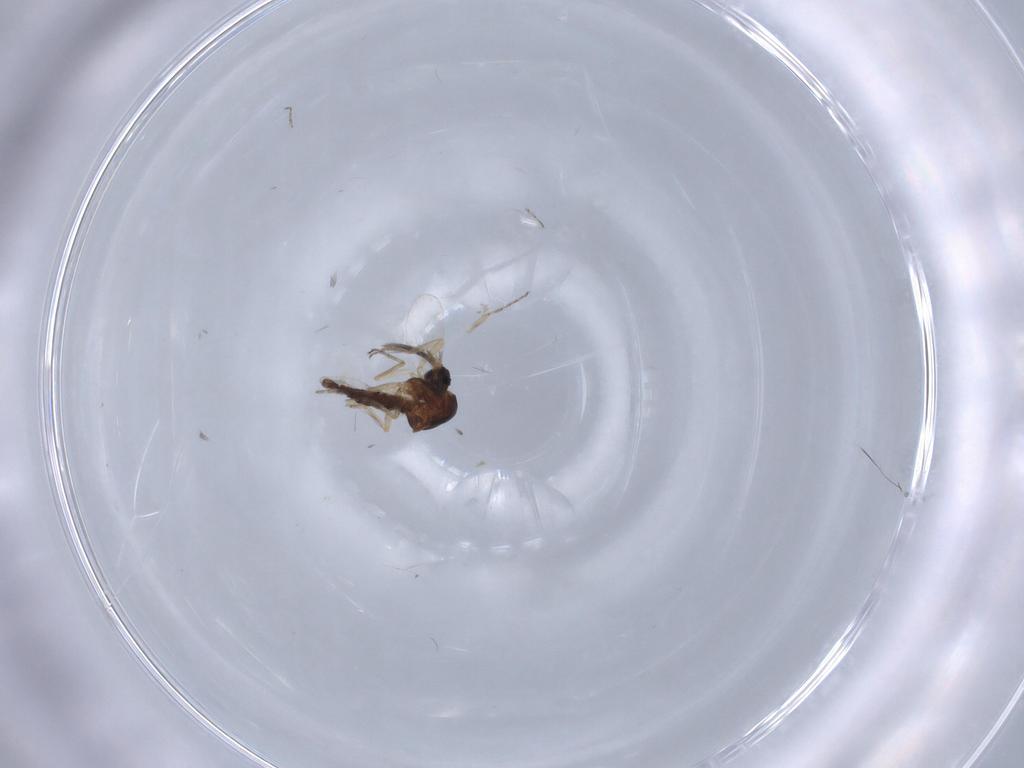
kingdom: Animalia
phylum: Arthropoda
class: Insecta
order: Diptera
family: Ceratopogonidae
